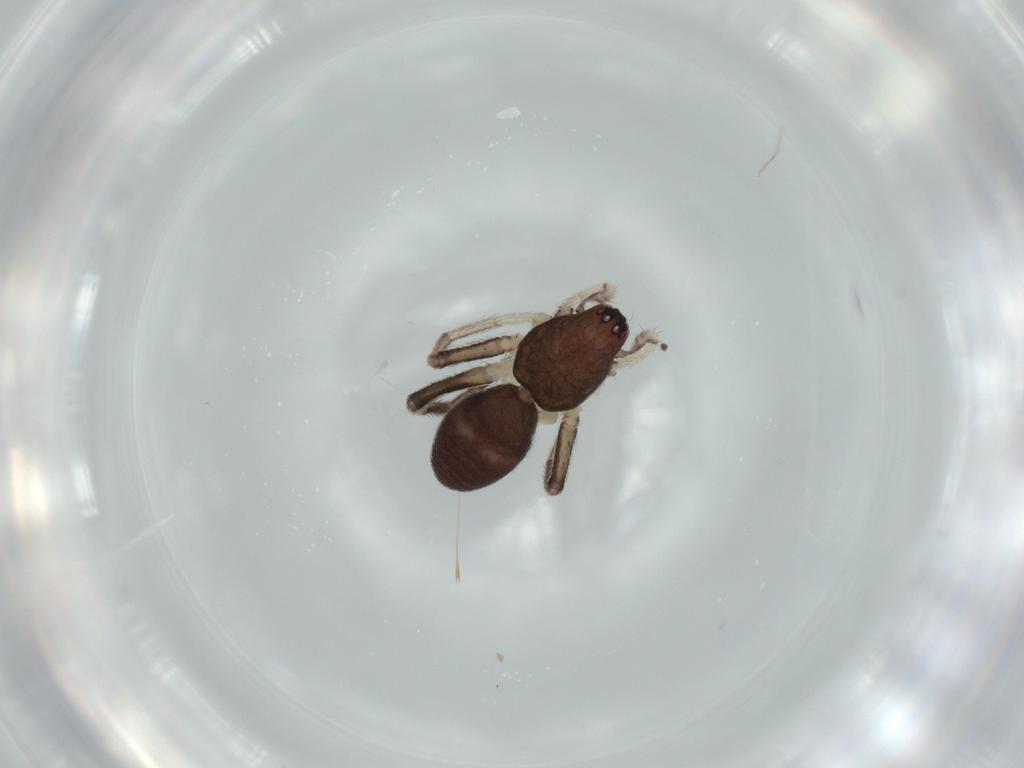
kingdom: Animalia
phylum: Arthropoda
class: Arachnida
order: Araneae
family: Corinnidae
